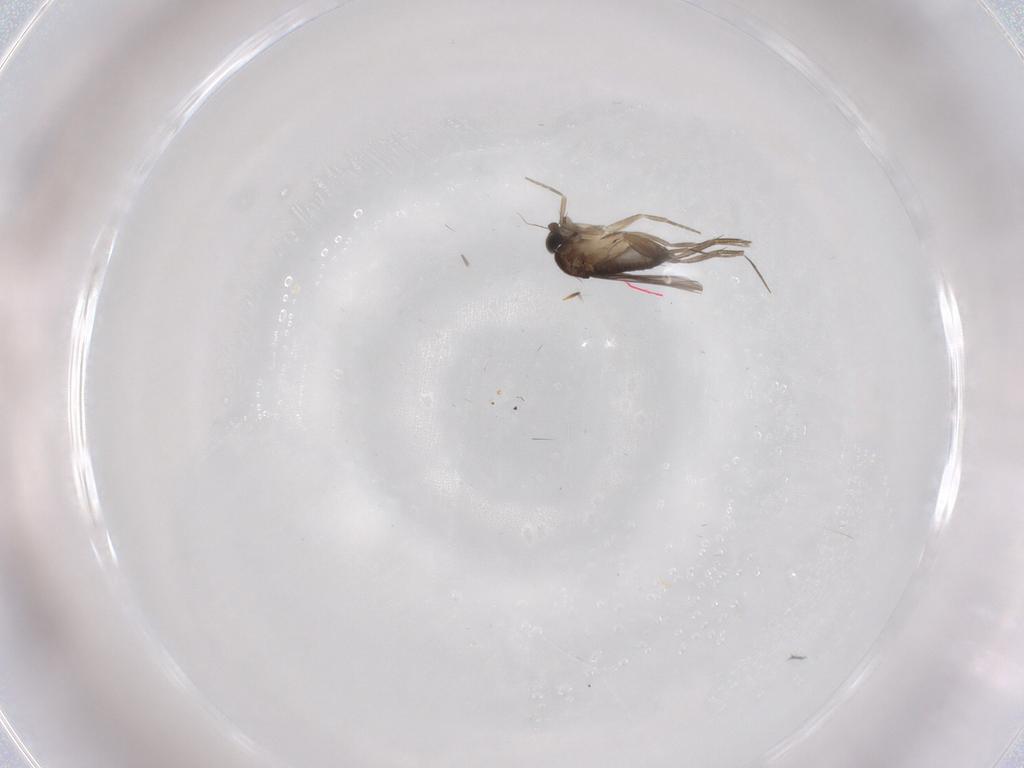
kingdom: Animalia
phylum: Arthropoda
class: Insecta
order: Diptera
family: Phoridae
